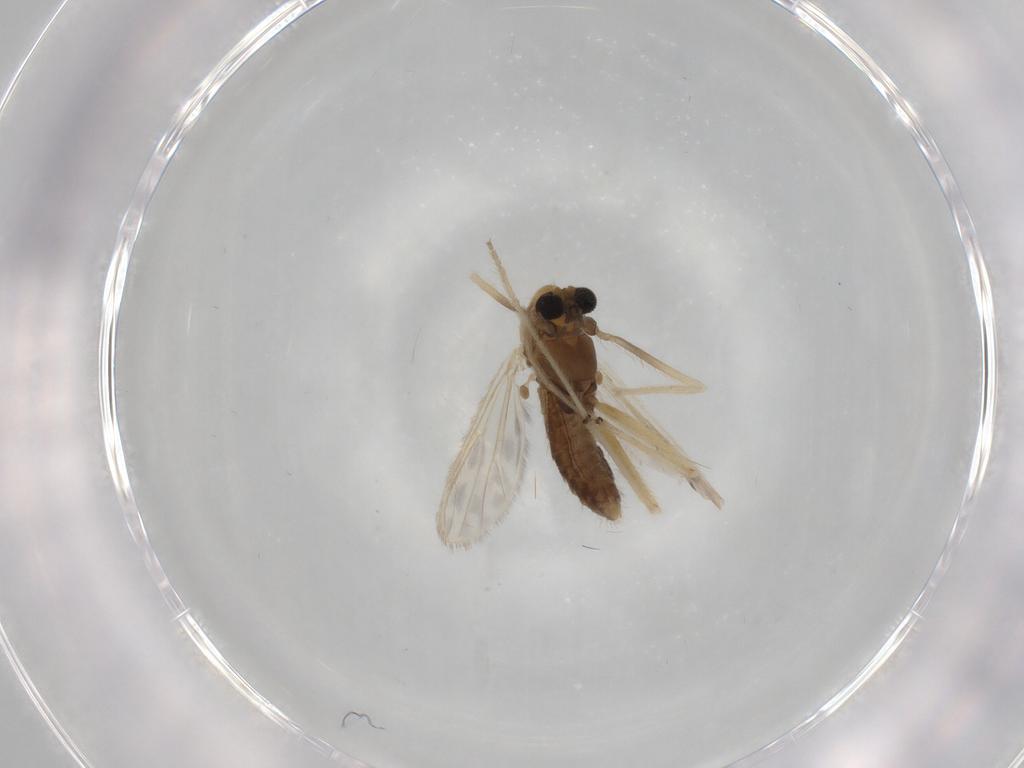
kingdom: Animalia
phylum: Arthropoda
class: Insecta
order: Diptera
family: Chironomidae
